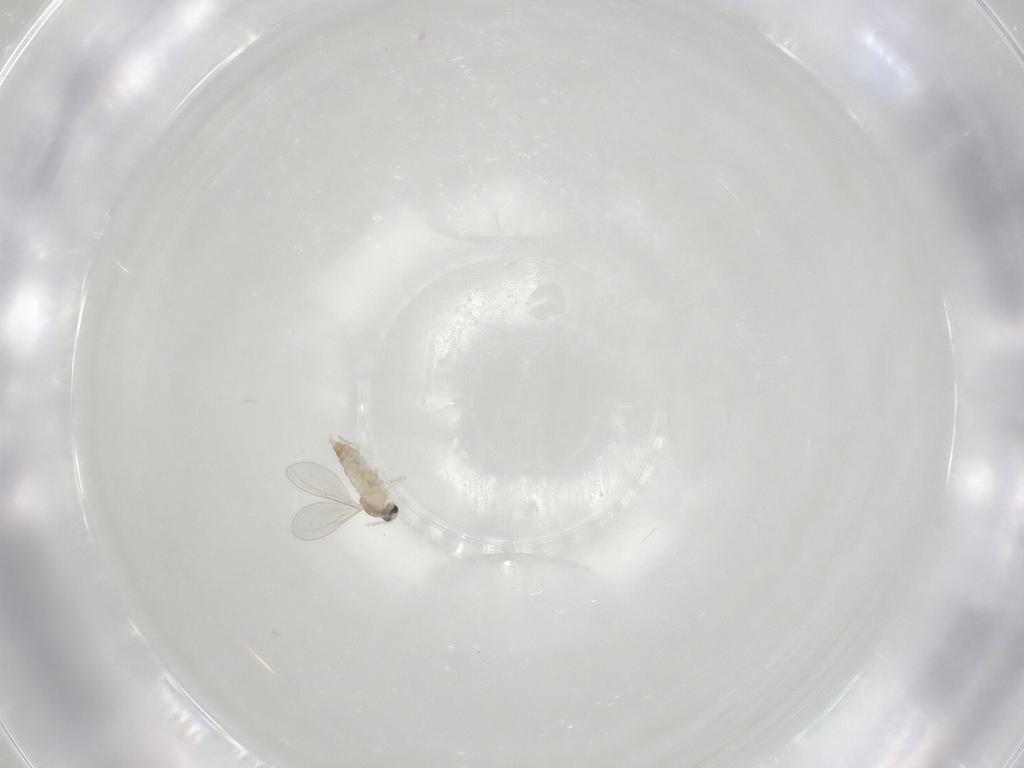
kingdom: Animalia
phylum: Arthropoda
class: Insecta
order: Diptera
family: Cecidomyiidae
